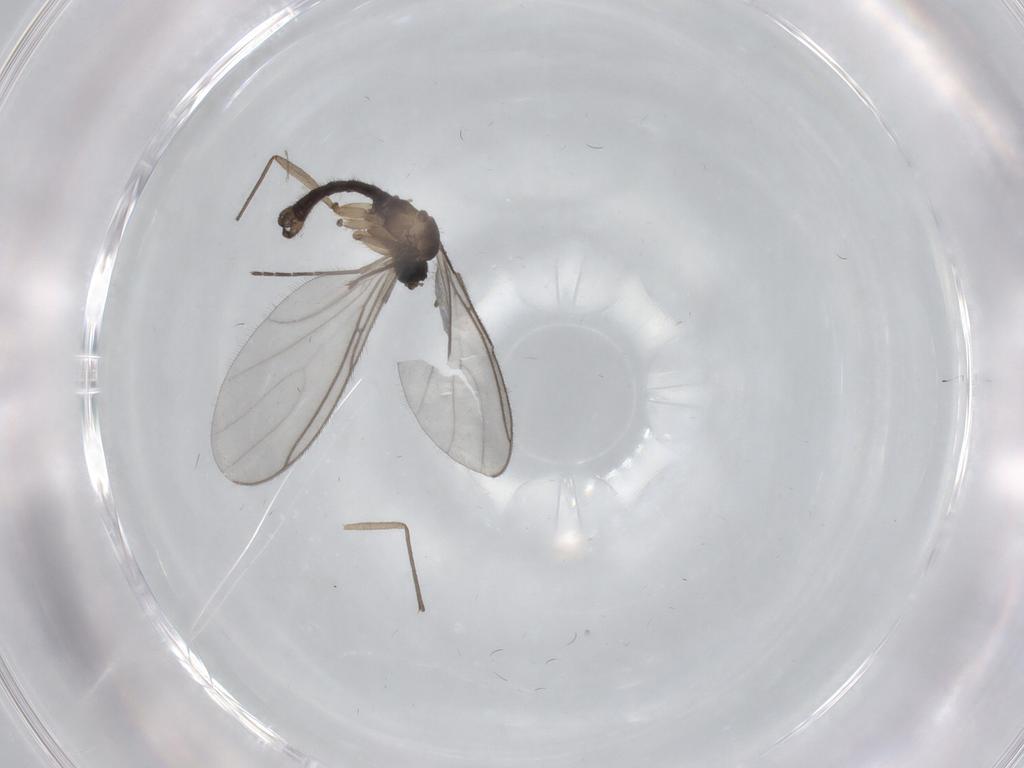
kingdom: Animalia
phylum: Arthropoda
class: Insecta
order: Diptera
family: Sciaridae
